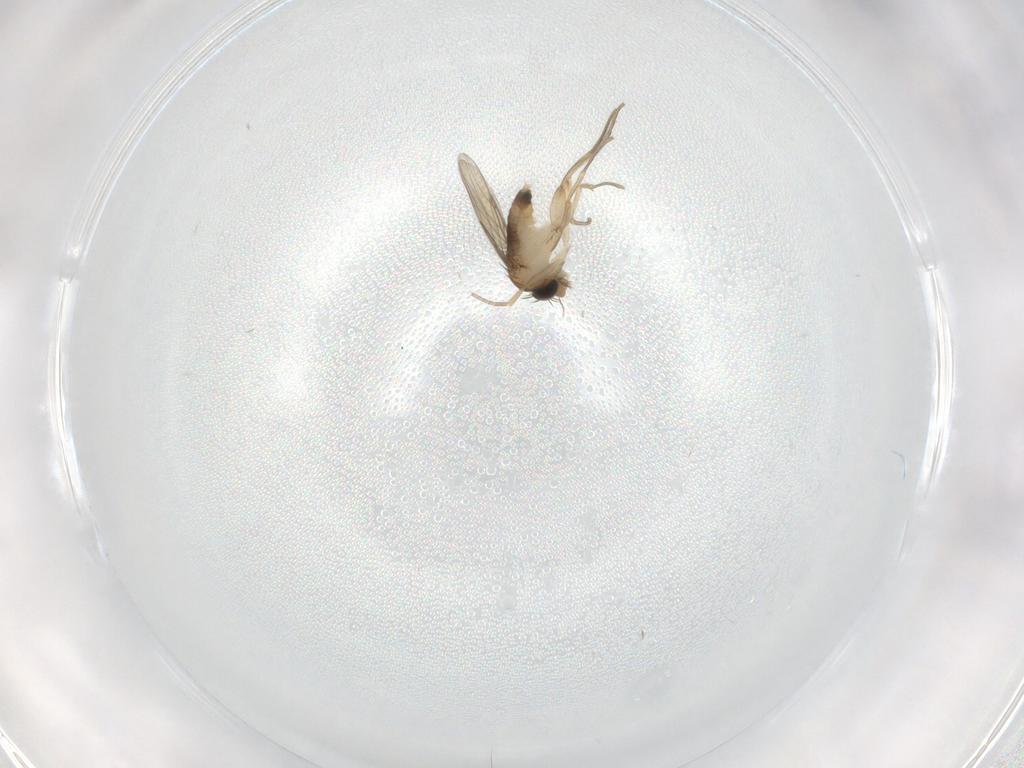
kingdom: Animalia
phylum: Arthropoda
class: Insecta
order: Diptera
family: Phoridae
